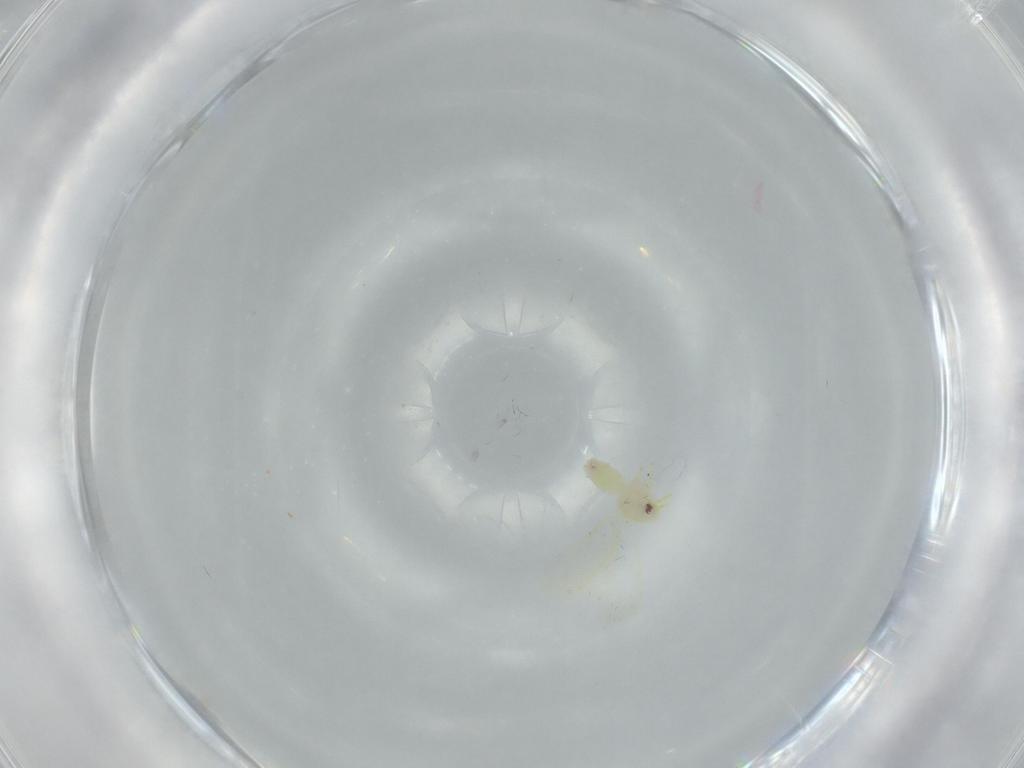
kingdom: Animalia
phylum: Arthropoda
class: Insecta
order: Hemiptera
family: Aleyrodidae
